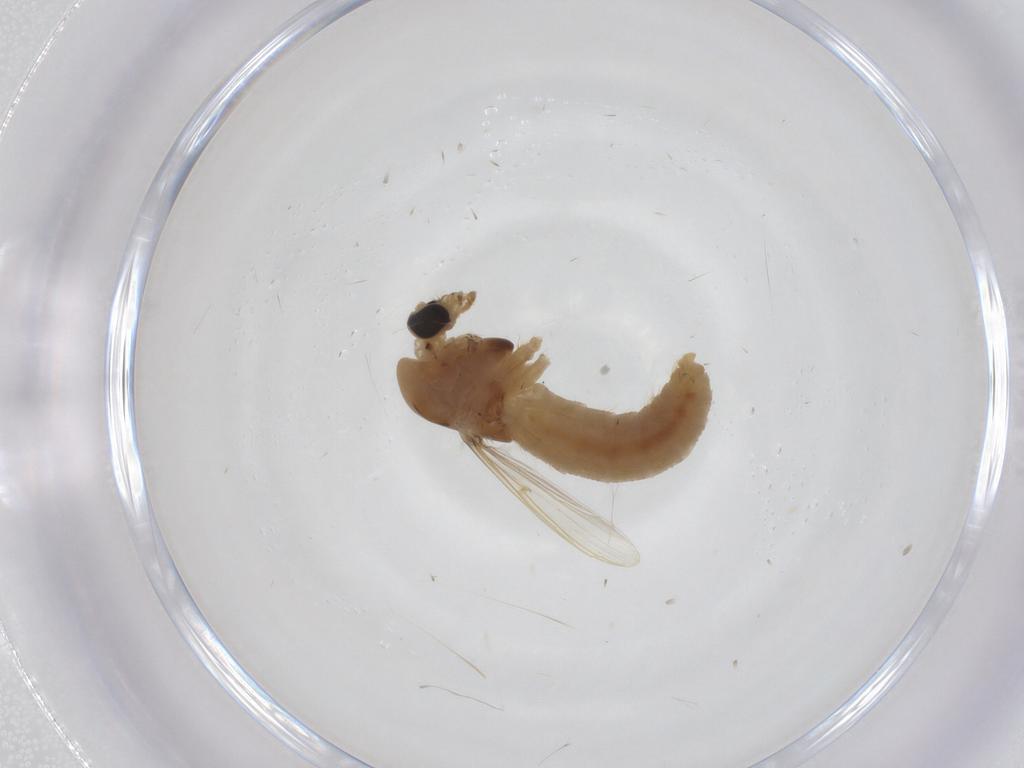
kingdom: Animalia
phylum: Arthropoda
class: Insecta
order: Diptera
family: Chironomidae
